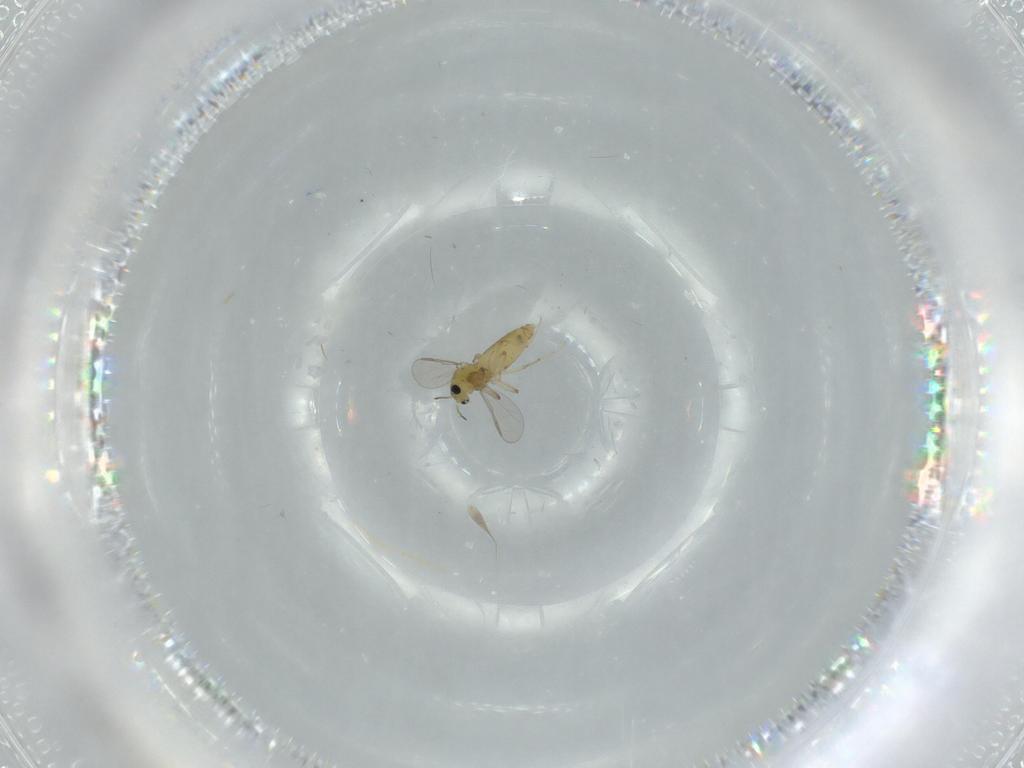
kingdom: Animalia
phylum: Arthropoda
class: Insecta
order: Diptera
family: Chironomidae
